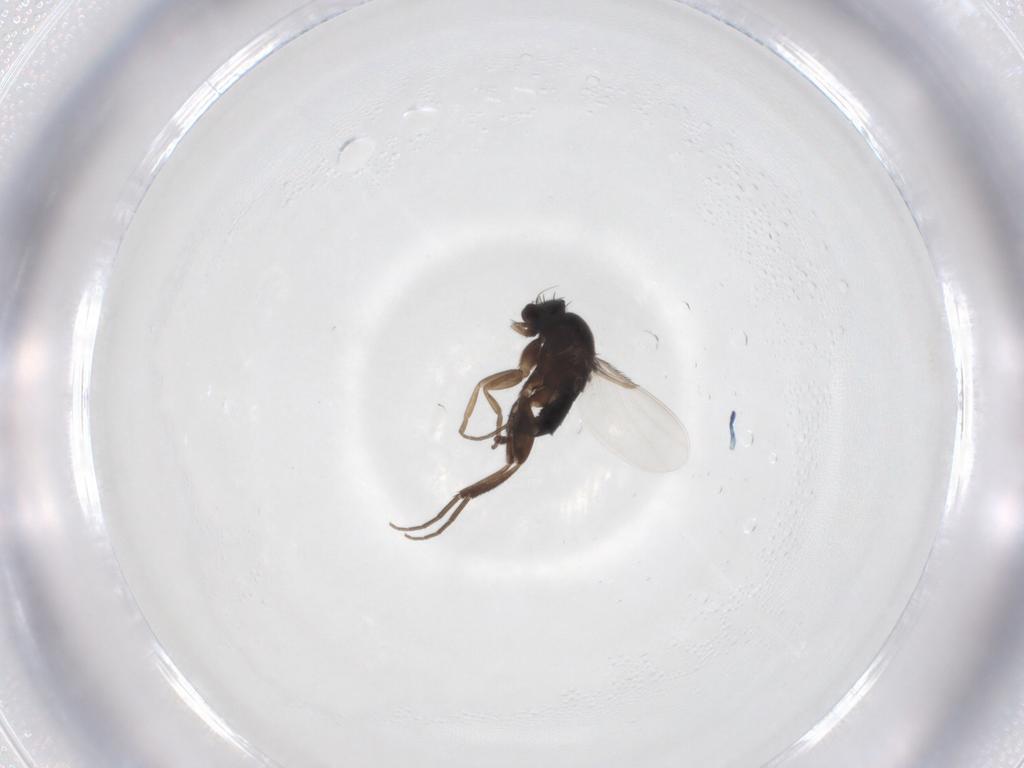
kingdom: Animalia
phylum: Arthropoda
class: Insecta
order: Diptera
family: Phoridae
